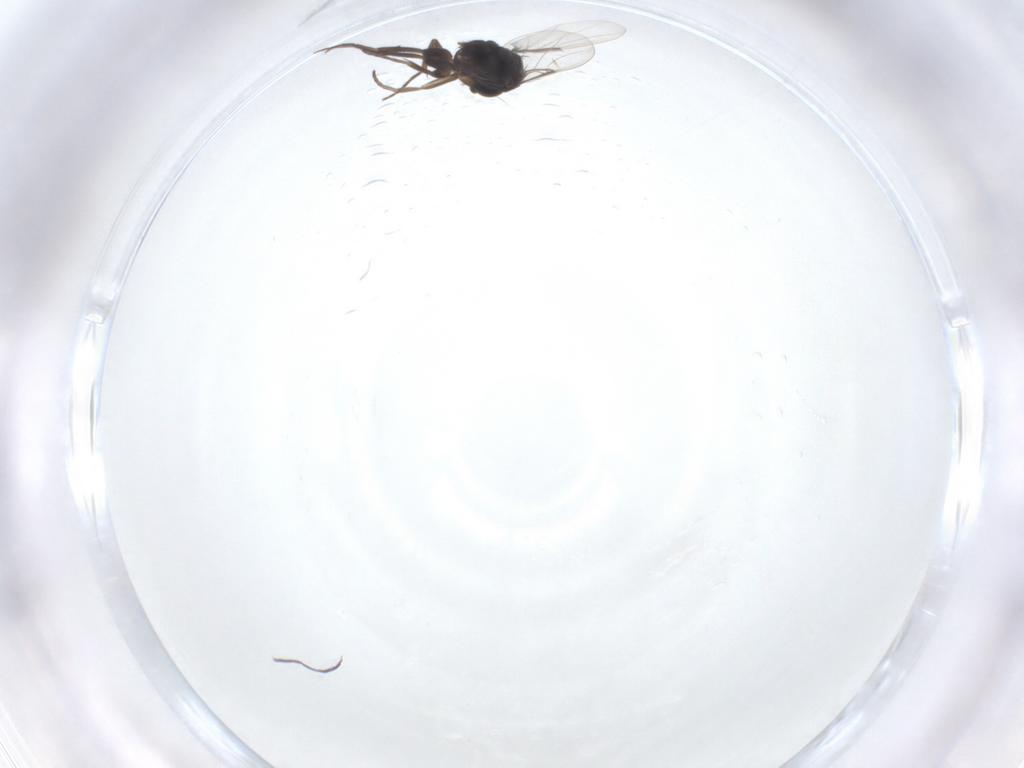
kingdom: Animalia
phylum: Arthropoda
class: Insecta
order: Diptera
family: Phoridae
